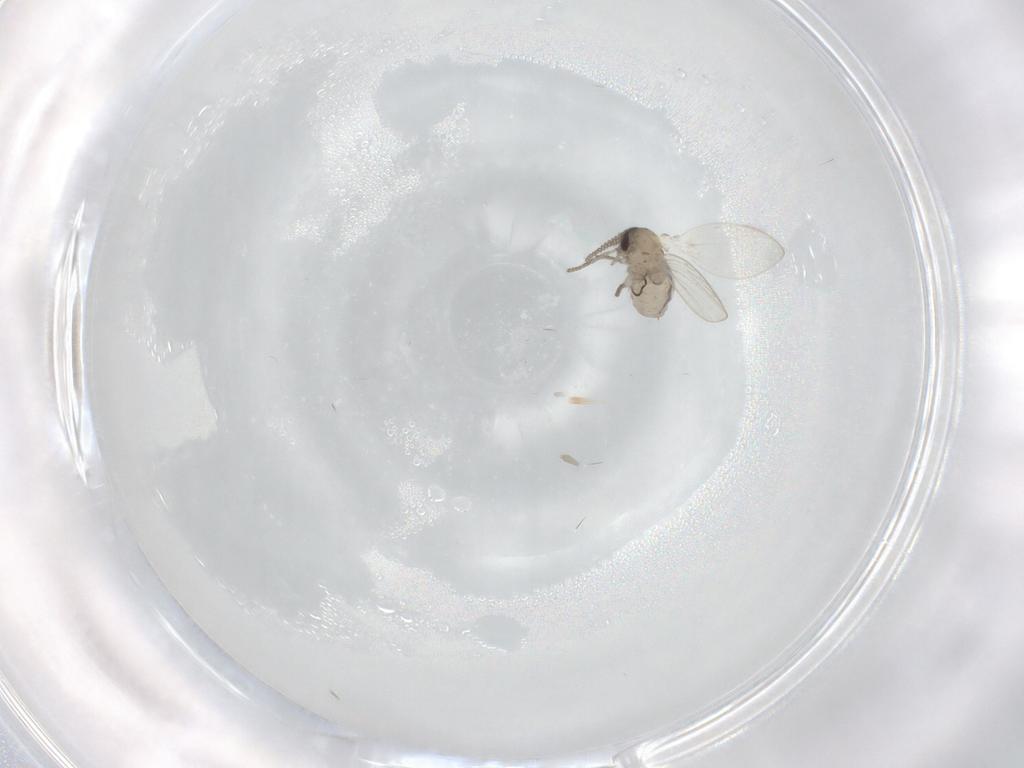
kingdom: Animalia
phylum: Arthropoda
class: Insecta
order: Diptera
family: Psychodidae
